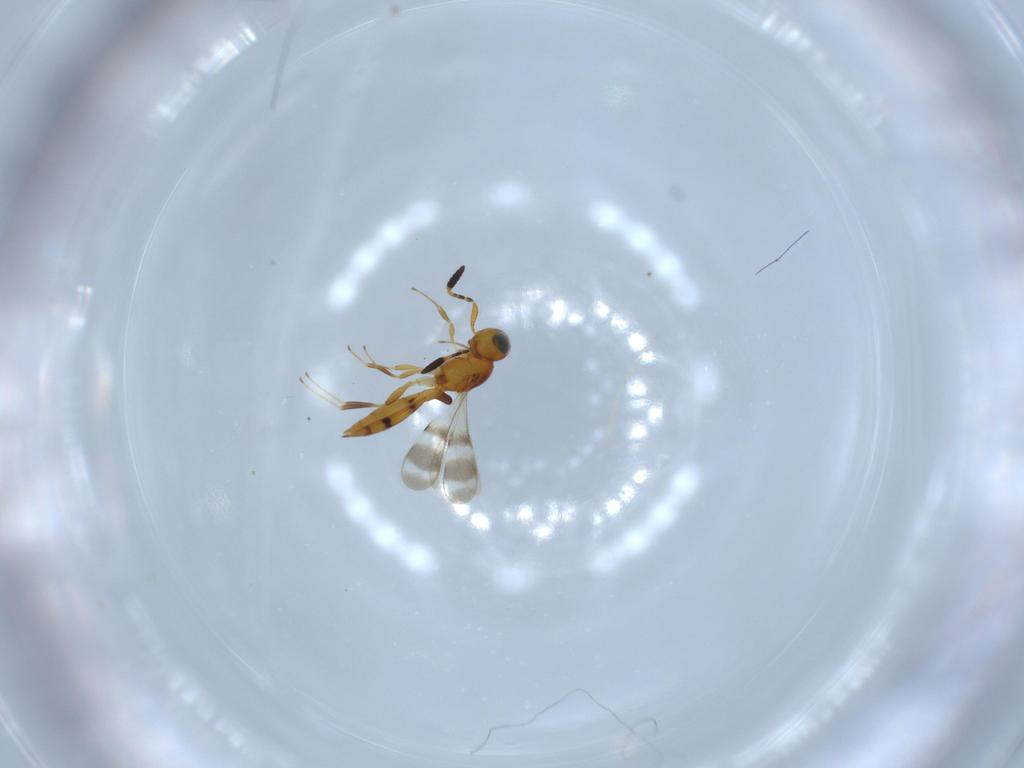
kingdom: Animalia
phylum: Arthropoda
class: Insecta
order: Hymenoptera
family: Scelionidae
